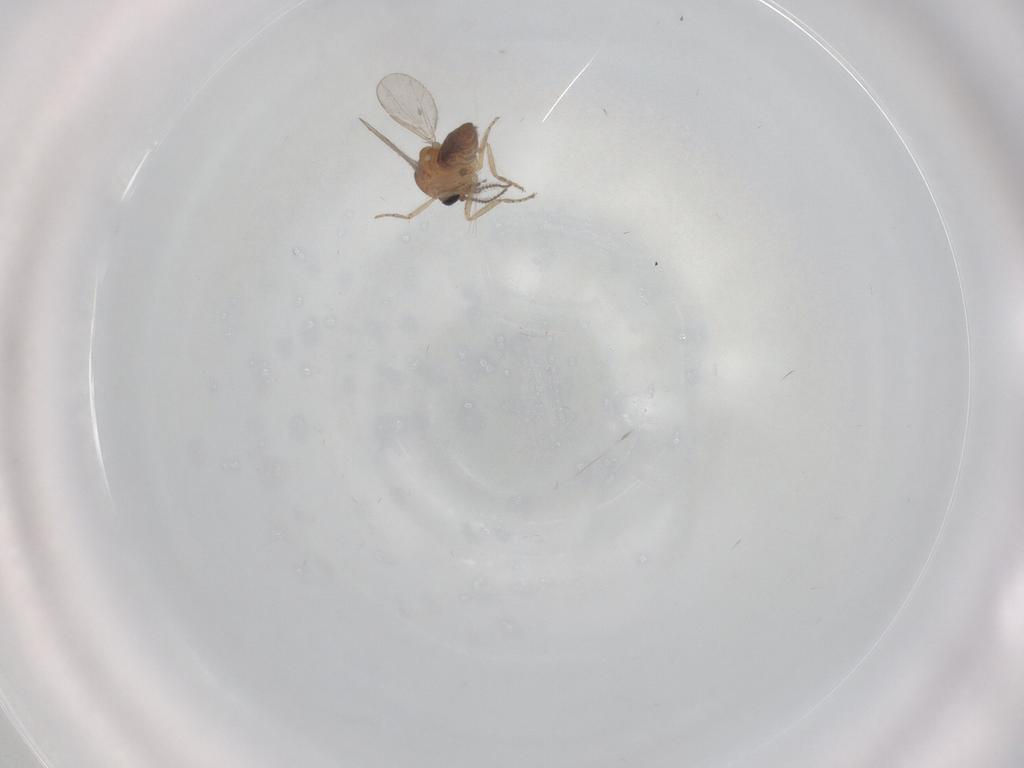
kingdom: Animalia
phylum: Arthropoda
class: Insecta
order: Diptera
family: Ceratopogonidae
